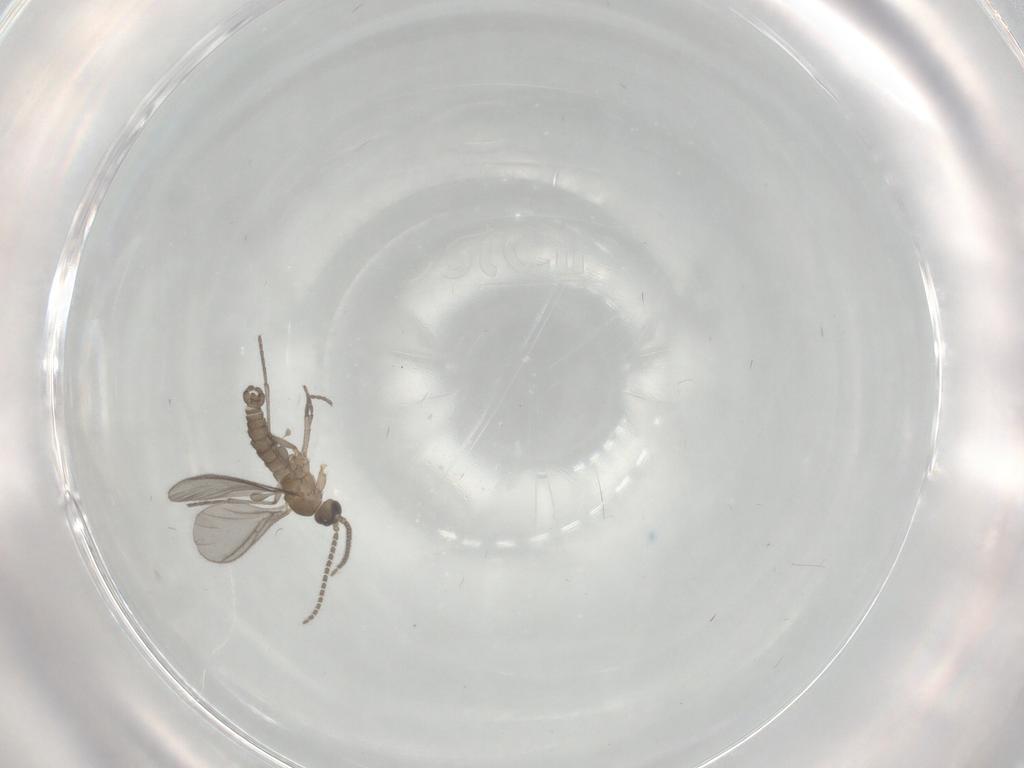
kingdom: Animalia
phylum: Arthropoda
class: Insecta
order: Diptera
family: Sciaridae
